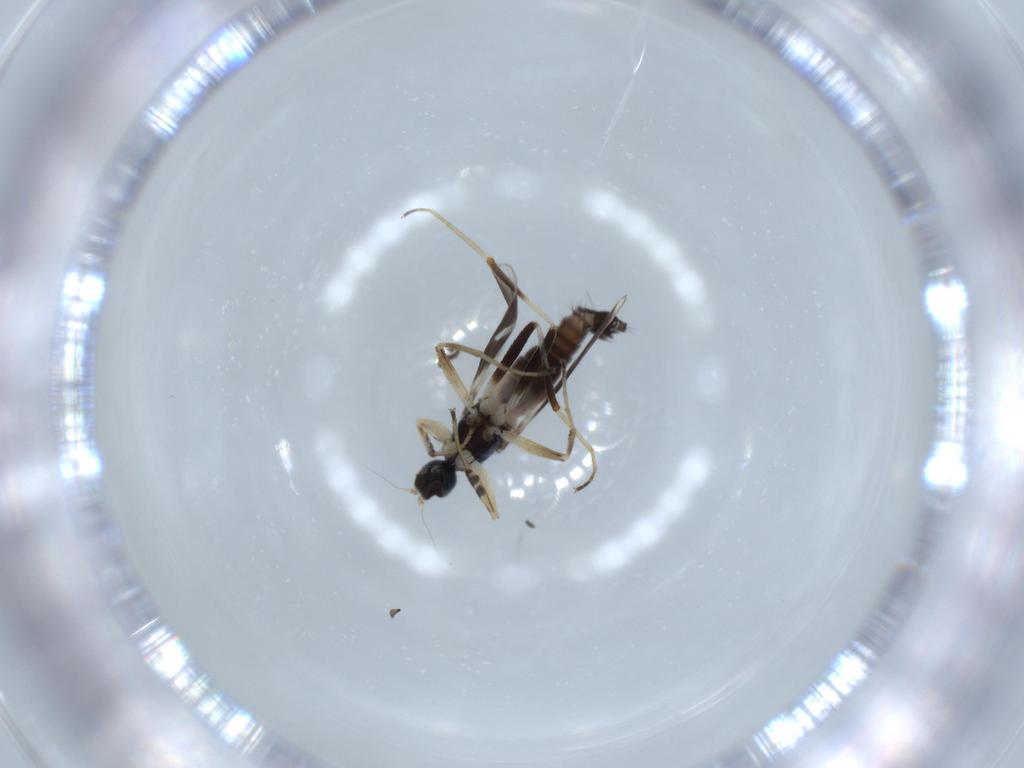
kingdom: Animalia
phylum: Arthropoda
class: Insecta
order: Diptera
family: Hybotidae
